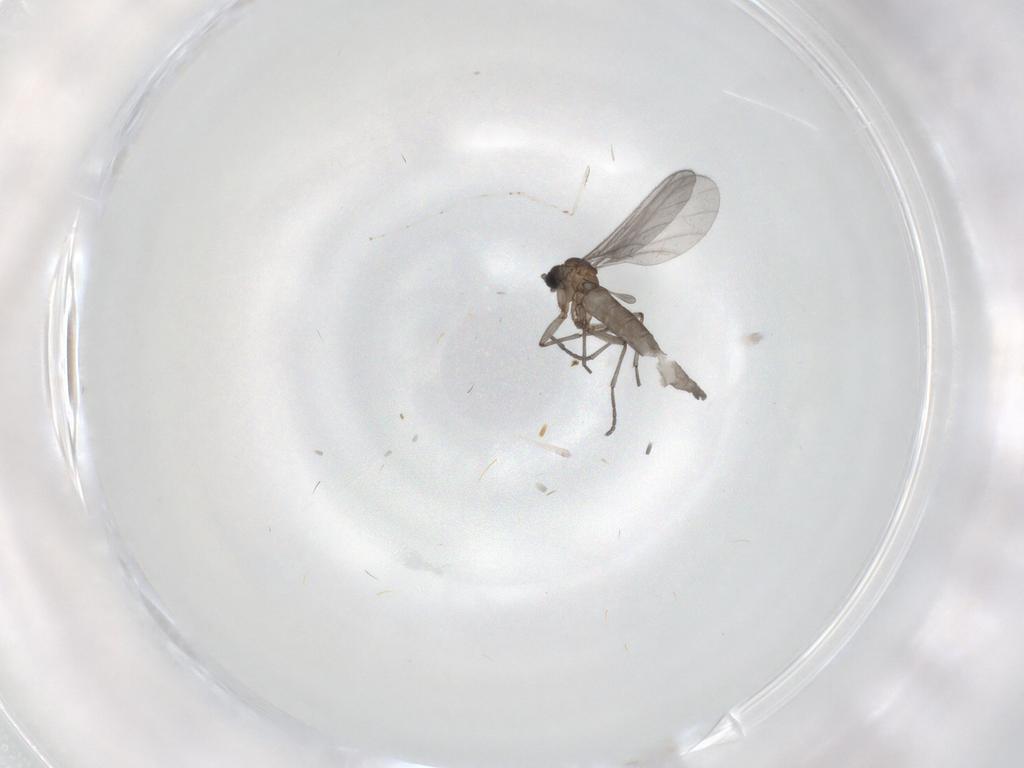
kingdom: Animalia
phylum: Arthropoda
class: Insecta
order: Diptera
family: Sciaridae
